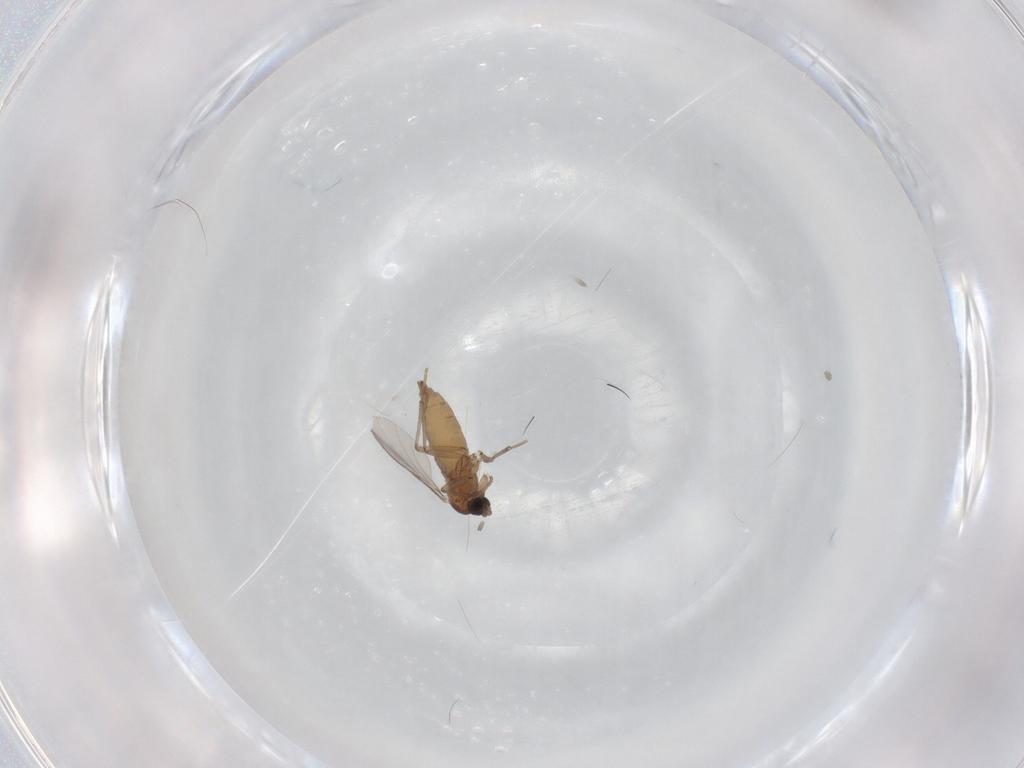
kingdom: Animalia
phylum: Arthropoda
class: Insecta
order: Diptera
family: Sciaridae
